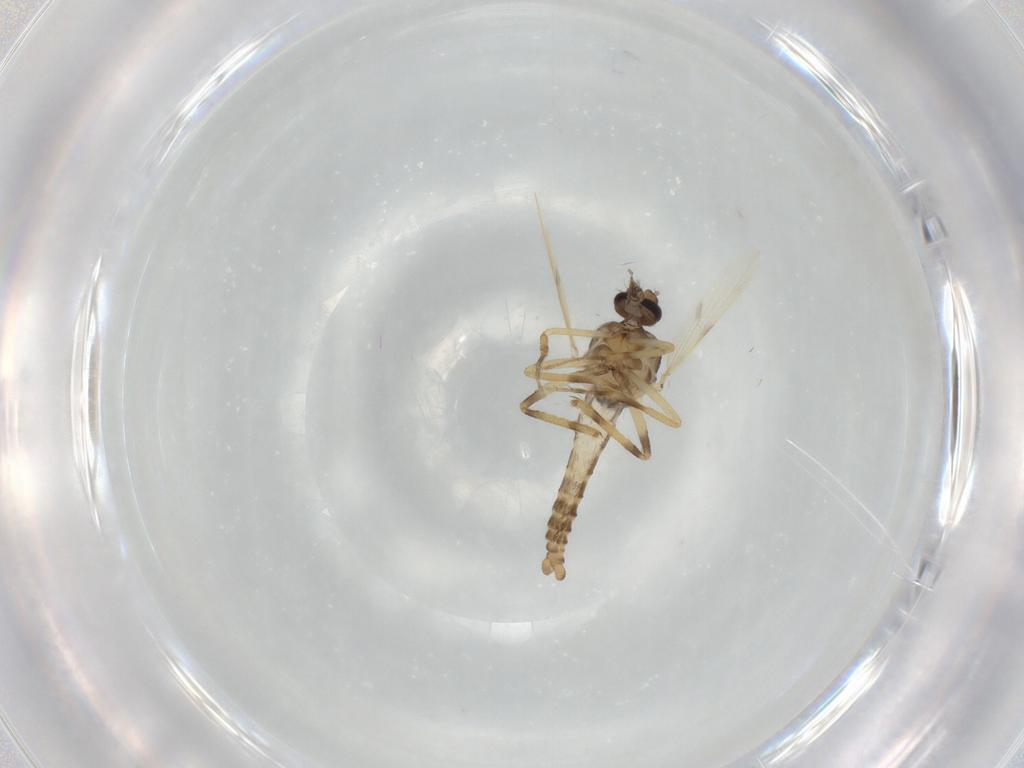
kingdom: Animalia
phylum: Arthropoda
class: Insecta
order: Diptera
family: Ceratopogonidae
